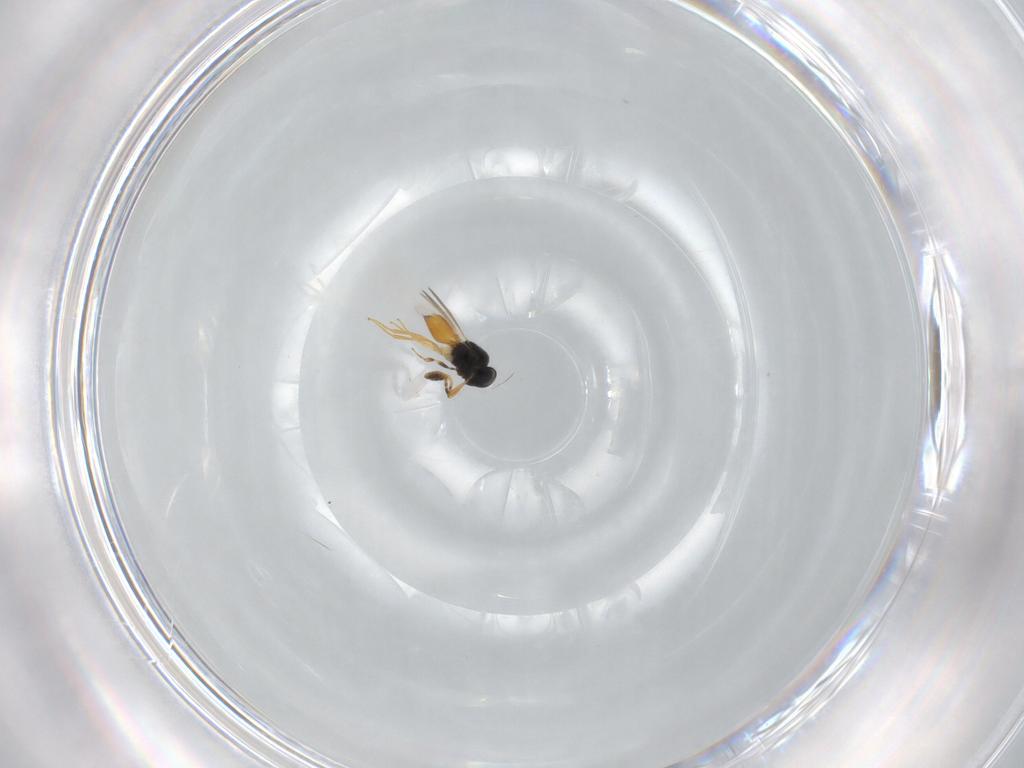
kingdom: Animalia
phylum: Arthropoda
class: Insecta
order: Hymenoptera
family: Scelionidae
